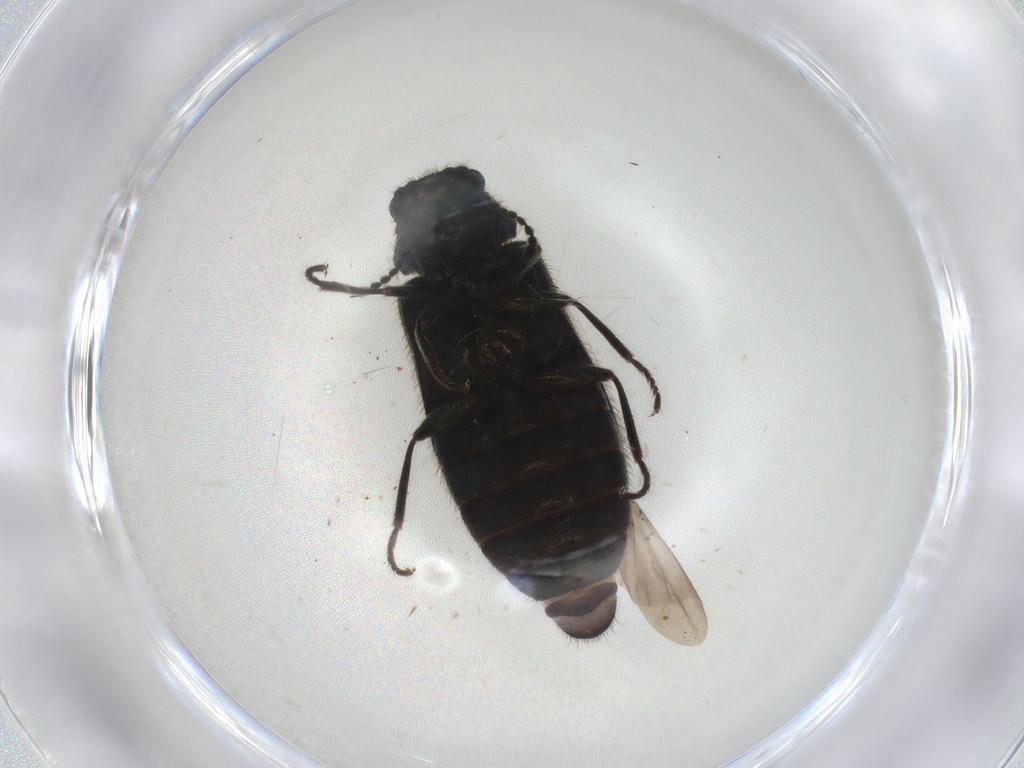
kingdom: Animalia
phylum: Arthropoda
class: Insecta
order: Coleoptera
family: Melyridae
